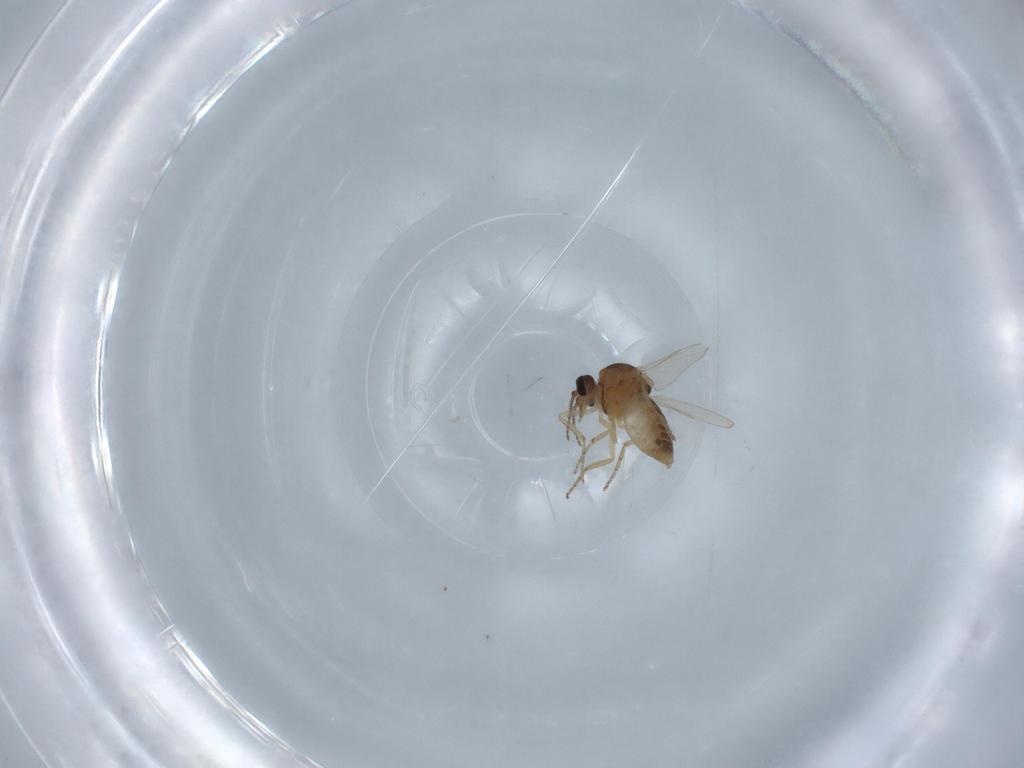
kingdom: Animalia
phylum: Arthropoda
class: Insecta
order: Diptera
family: Ceratopogonidae
